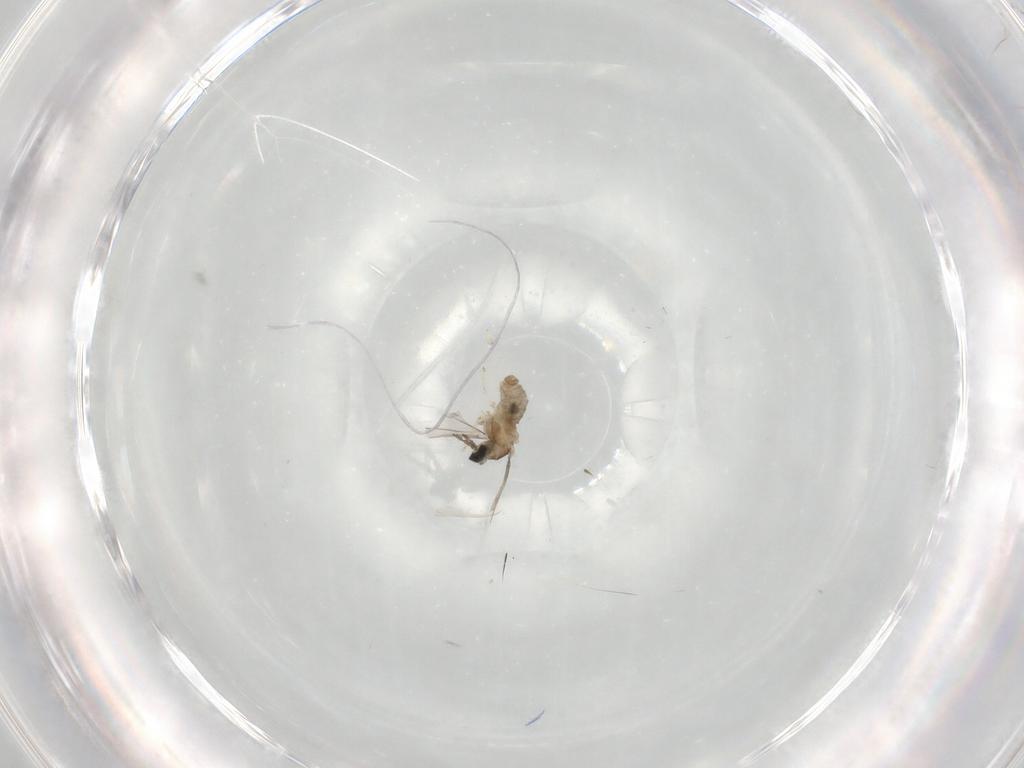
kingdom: Animalia
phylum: Arthropoda
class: Insecta
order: Diptera
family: Cecidomyiidae
